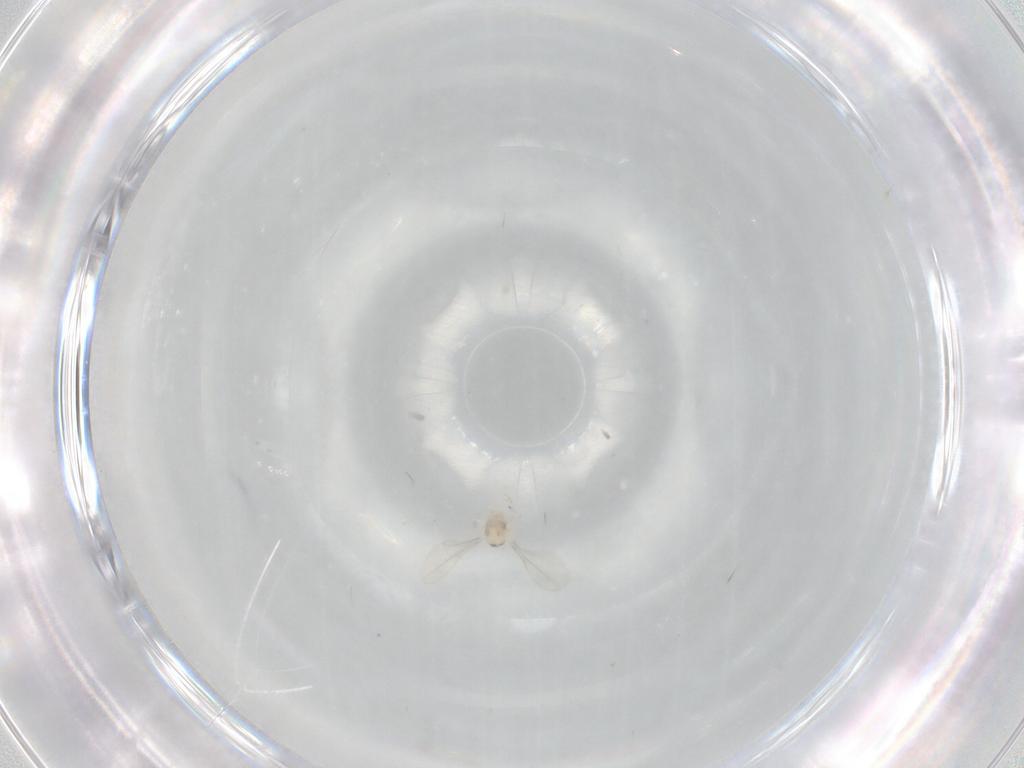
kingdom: Animalia
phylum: Arthropoda
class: Insecta
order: Diptera
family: Cecidomyiidae
